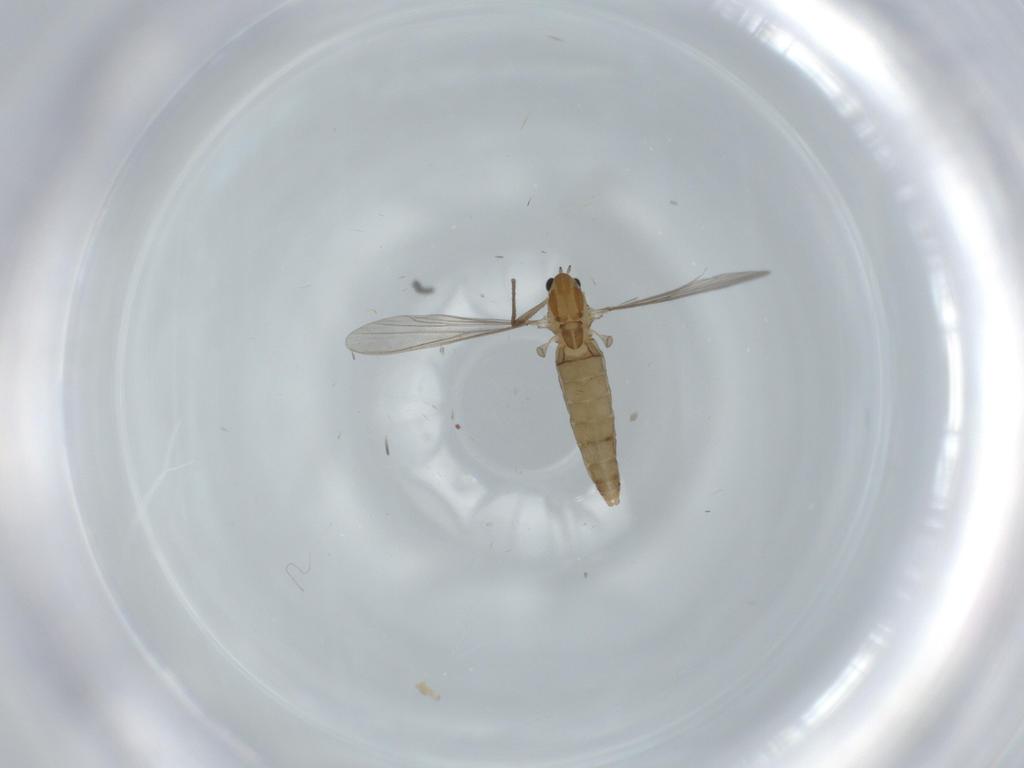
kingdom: Animalia
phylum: Arthropoda
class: Insecta
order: Diptera
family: Chironomidae
